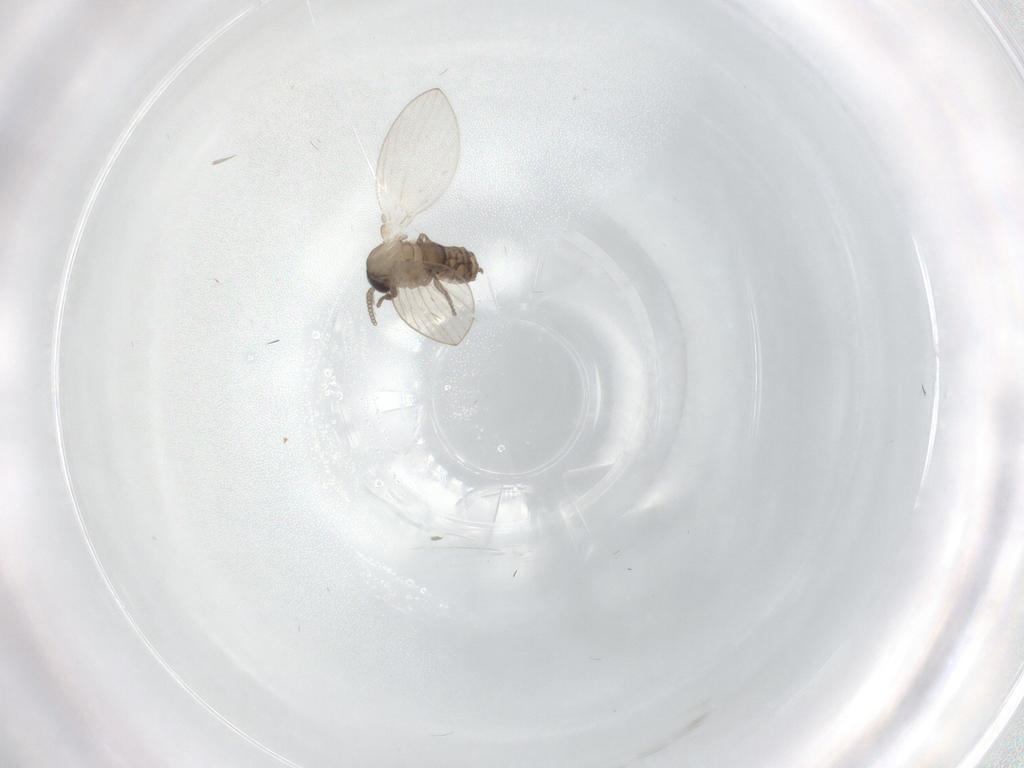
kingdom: Animalia
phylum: Arthropoda
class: Insecta
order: Diptera
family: Psychodidae
